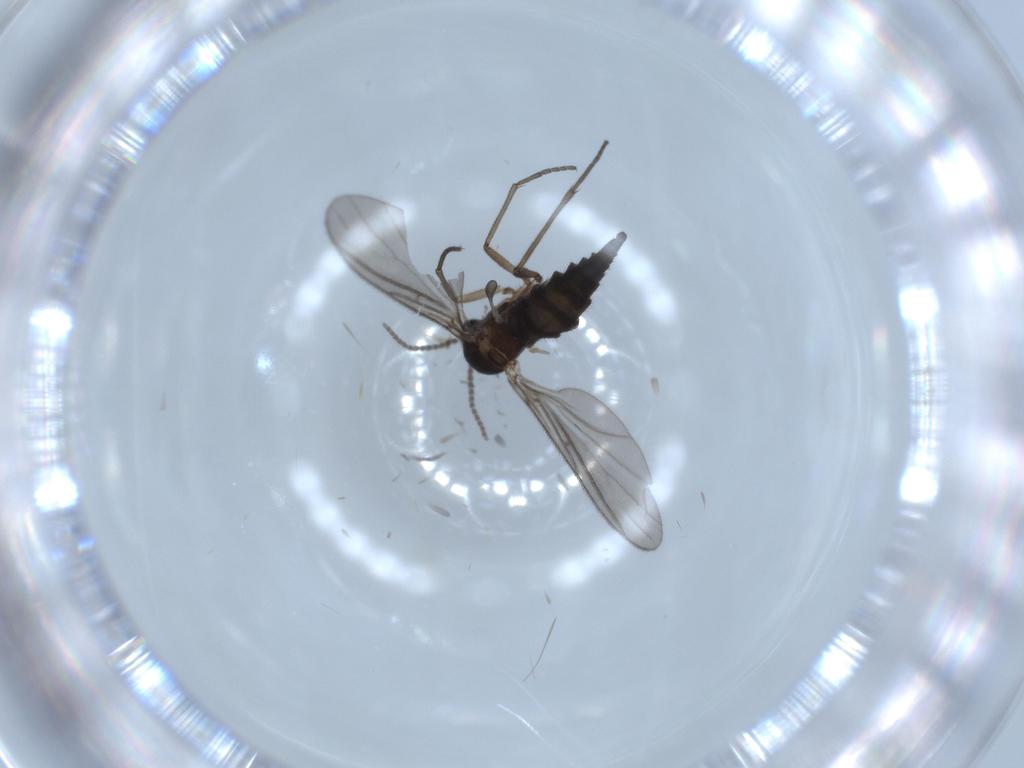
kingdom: Animalia
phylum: Arthropoda
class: Insecta
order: Diptera
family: Sciaridae
